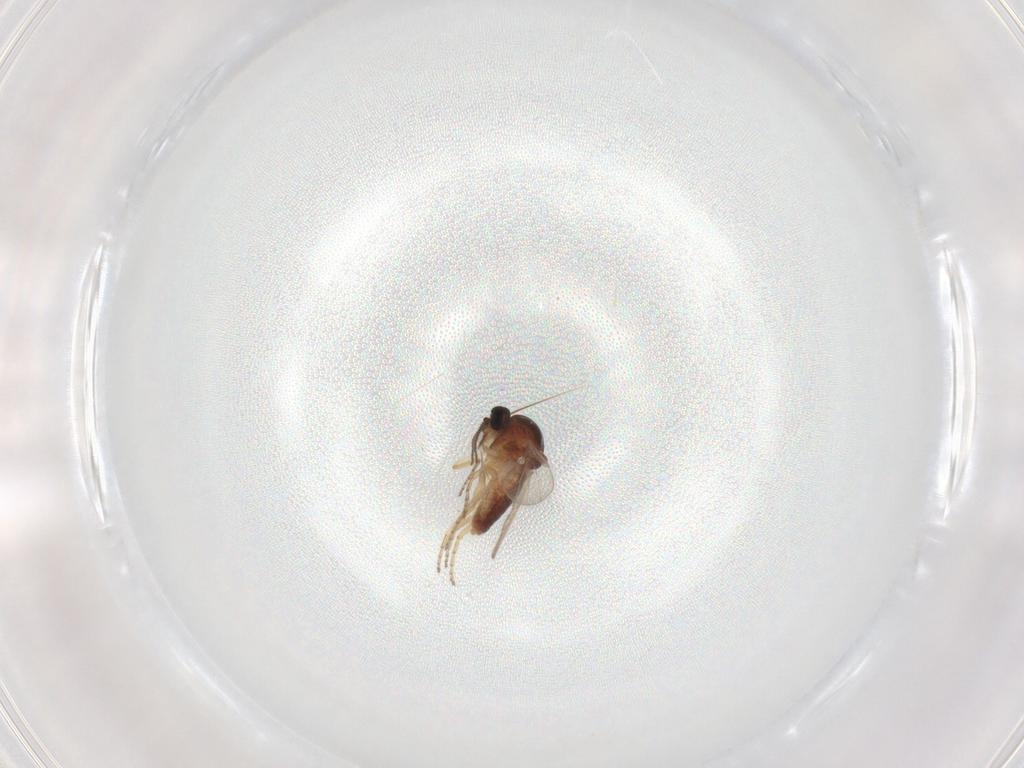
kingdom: Animalia
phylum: Arthropoda
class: Insecta
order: Diptera
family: Ceratopogonidae
